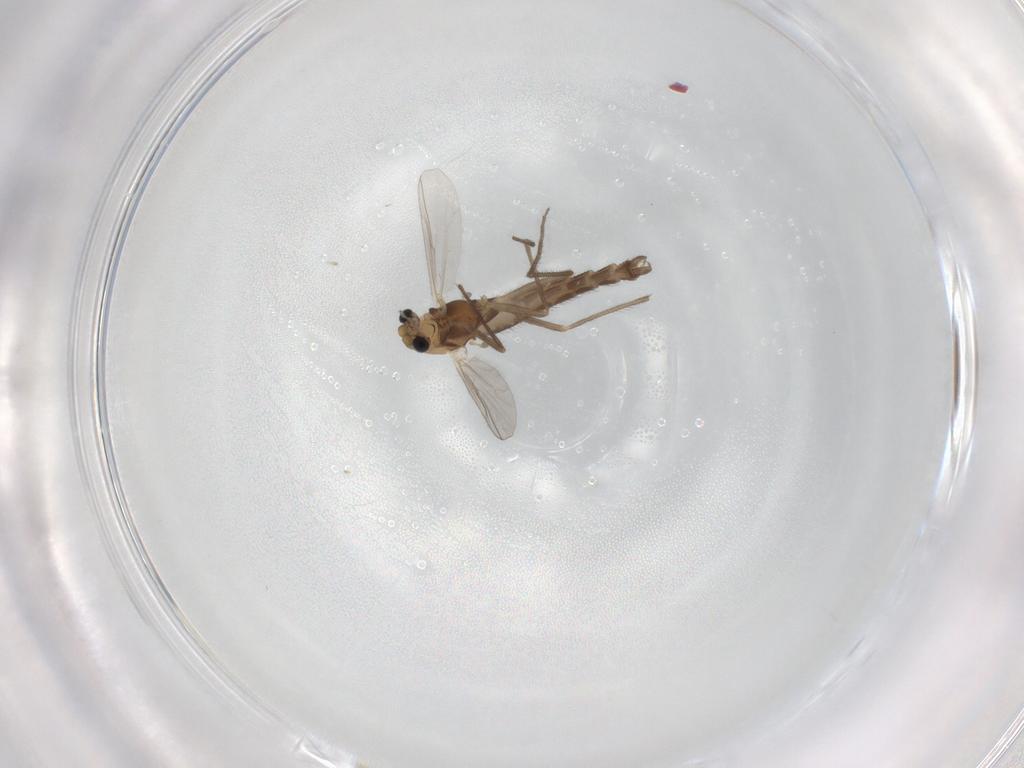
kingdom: Animalia
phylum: Arthropoda
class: Insecta
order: Diptera
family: Chironomidae
